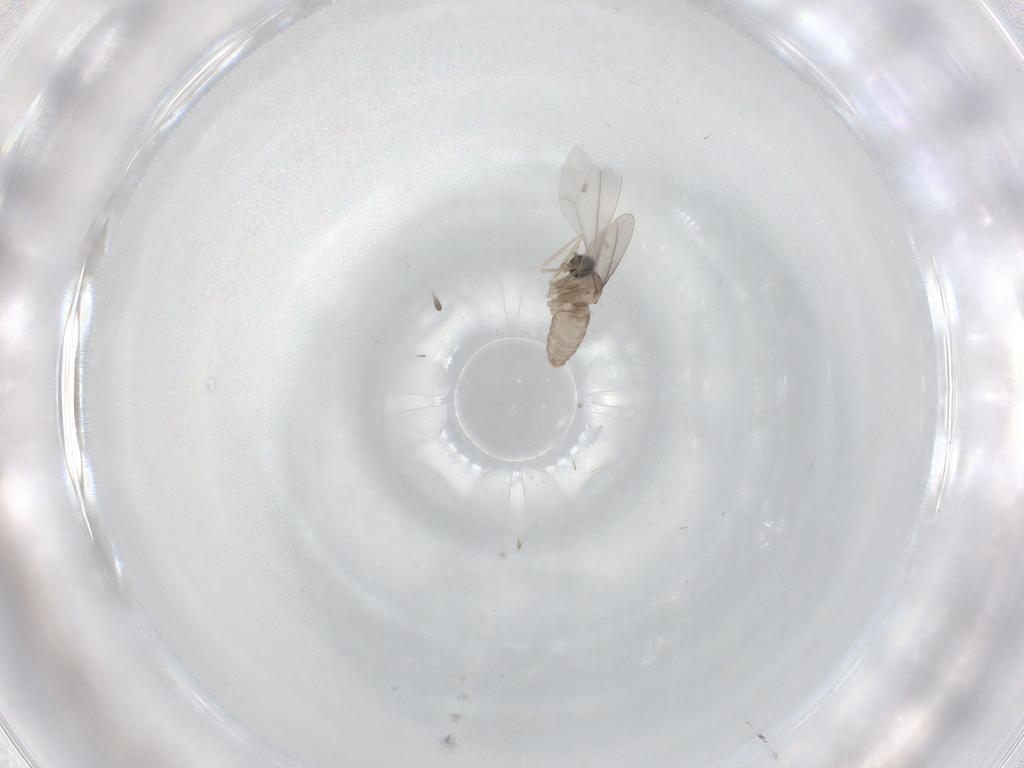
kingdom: Animalia
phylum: Arthropoda
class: Insecta
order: Diptera
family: Cecidomyiidae
